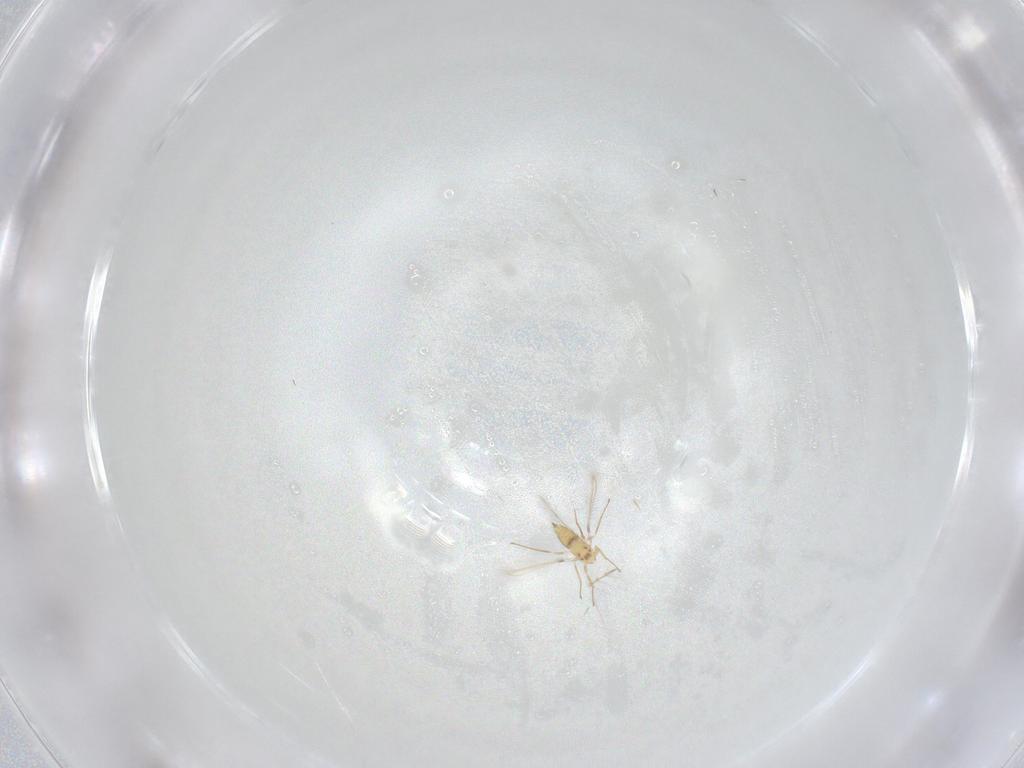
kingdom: Animalia
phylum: Arthropoda
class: Insecta
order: Hymenoptera
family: Mymaridae
